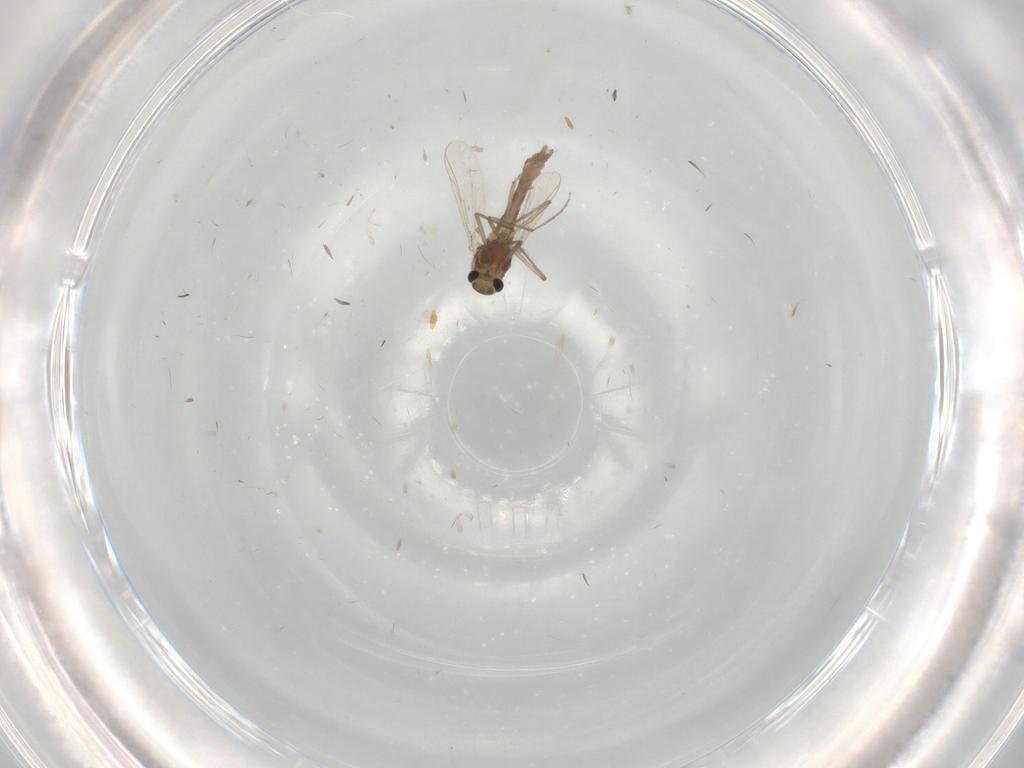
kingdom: Animalia
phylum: Arthropoda
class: Insecta
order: Diptera
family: Chironomidae
